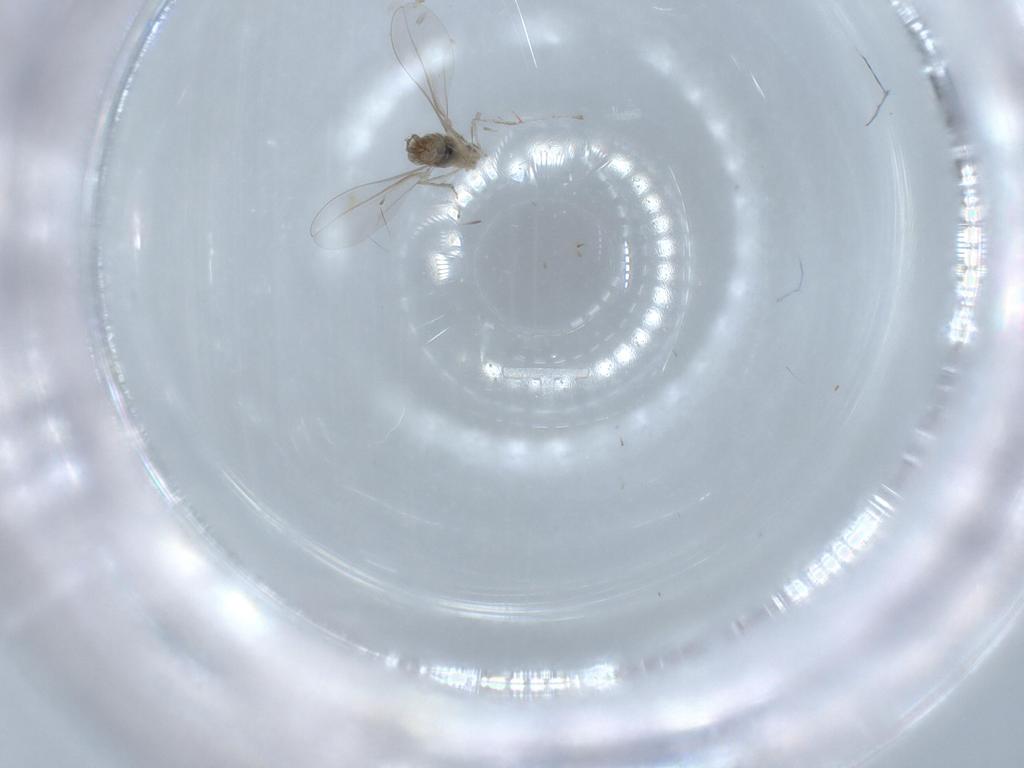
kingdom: Animalia
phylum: Arthropoda
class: Insecta
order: Diptera
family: Cecidomyiidae
